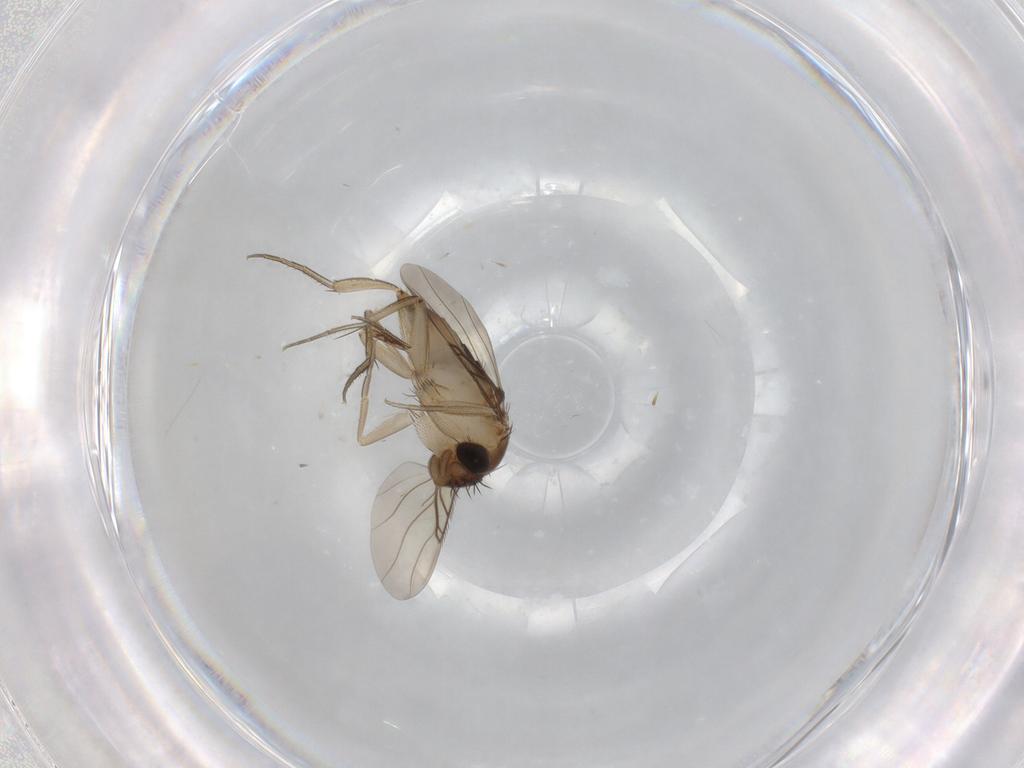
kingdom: Animalia
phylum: Arthropoda
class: Insecta
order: Diptera
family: Phoridae
